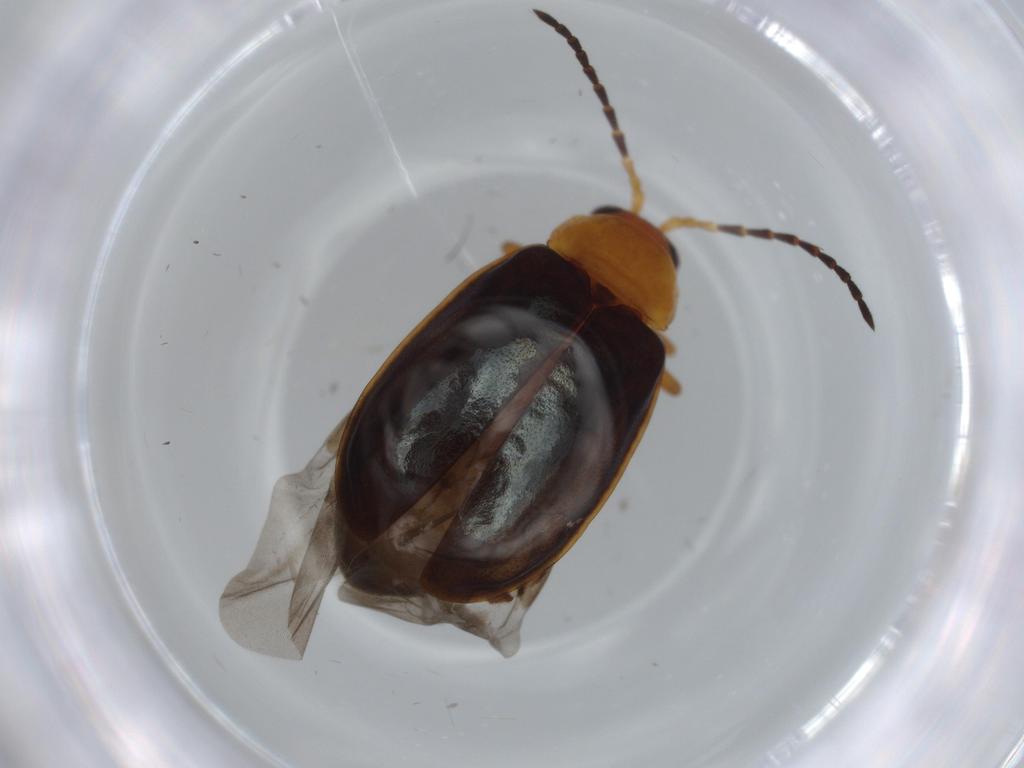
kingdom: Animalia
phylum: Arthropoda
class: Insecta
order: Coleoptera
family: Chrysomelidae
